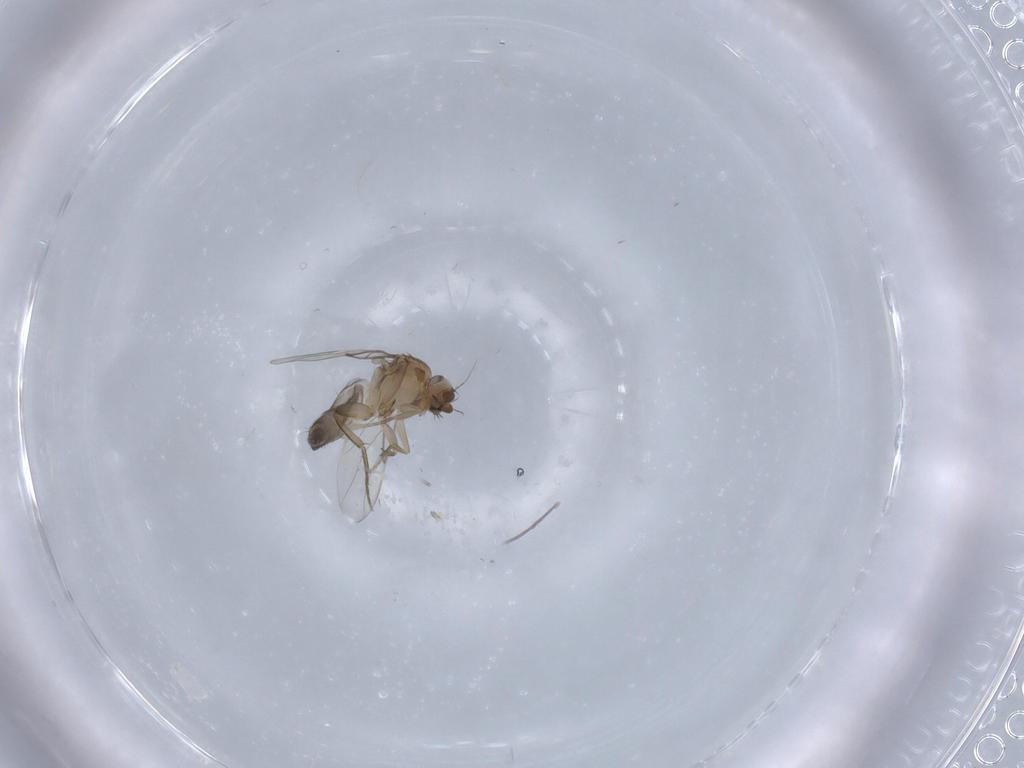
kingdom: Animalia
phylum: Arthropoda
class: Insecta
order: Diptera
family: Phoridae
